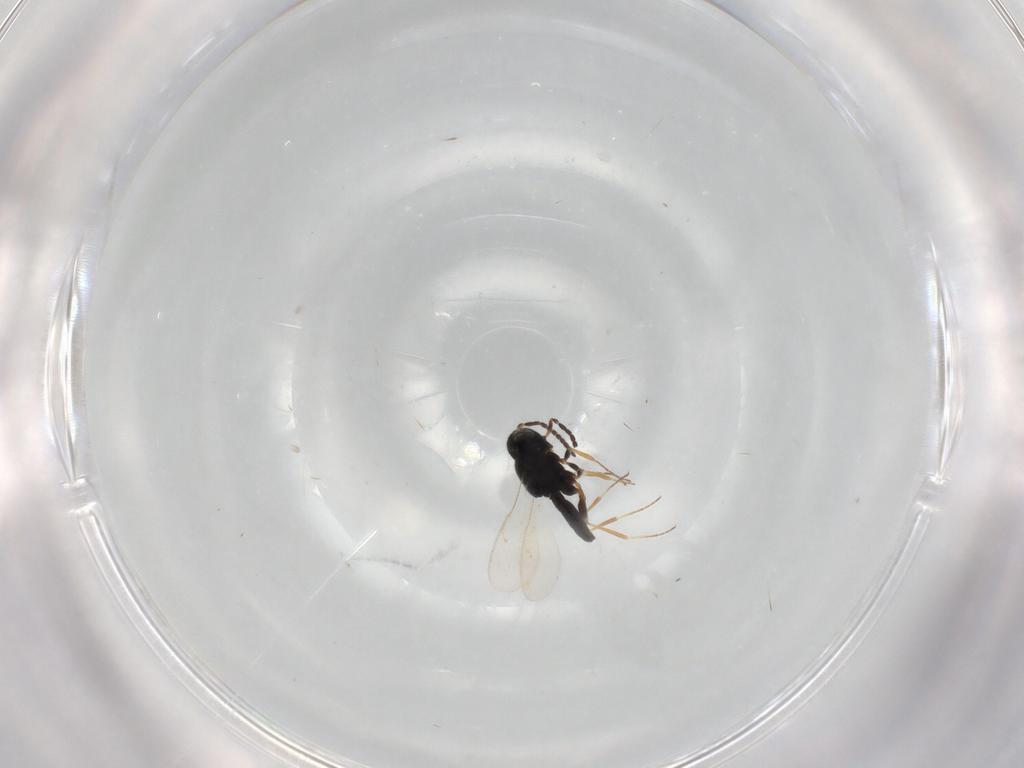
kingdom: Animalia
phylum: Arthropoda
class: Insecta
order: Hymenoptera
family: Scelionidae
